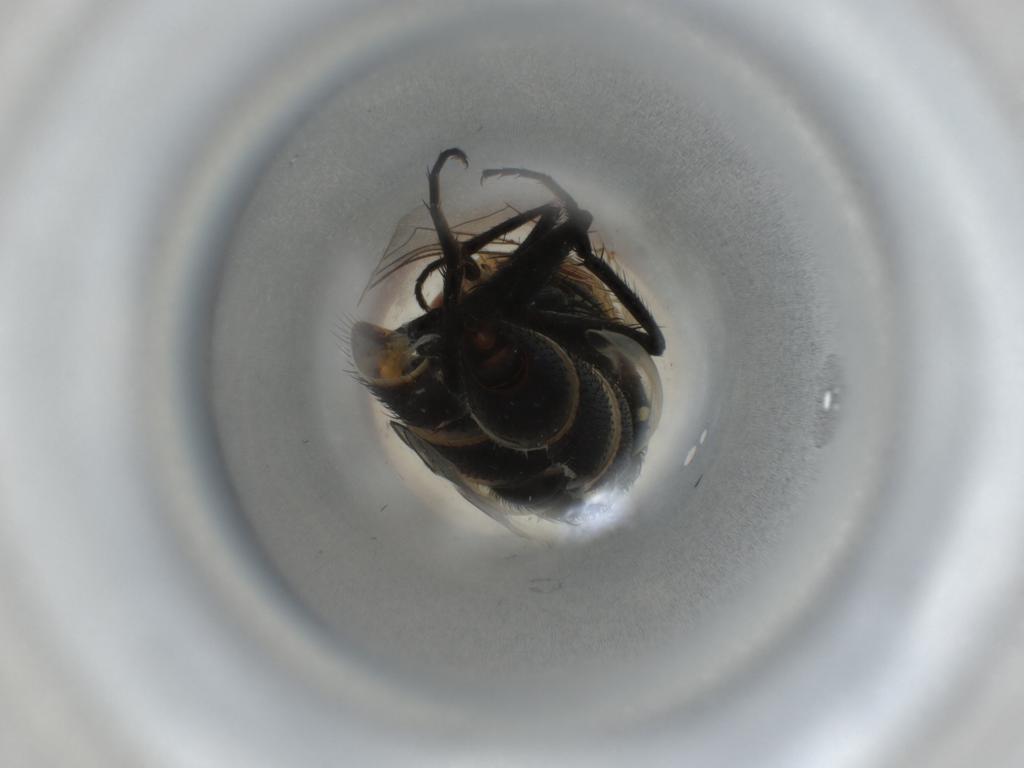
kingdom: Animalia
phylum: Arthropoda
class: Insecta
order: Diptera
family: Sarcophagidae
